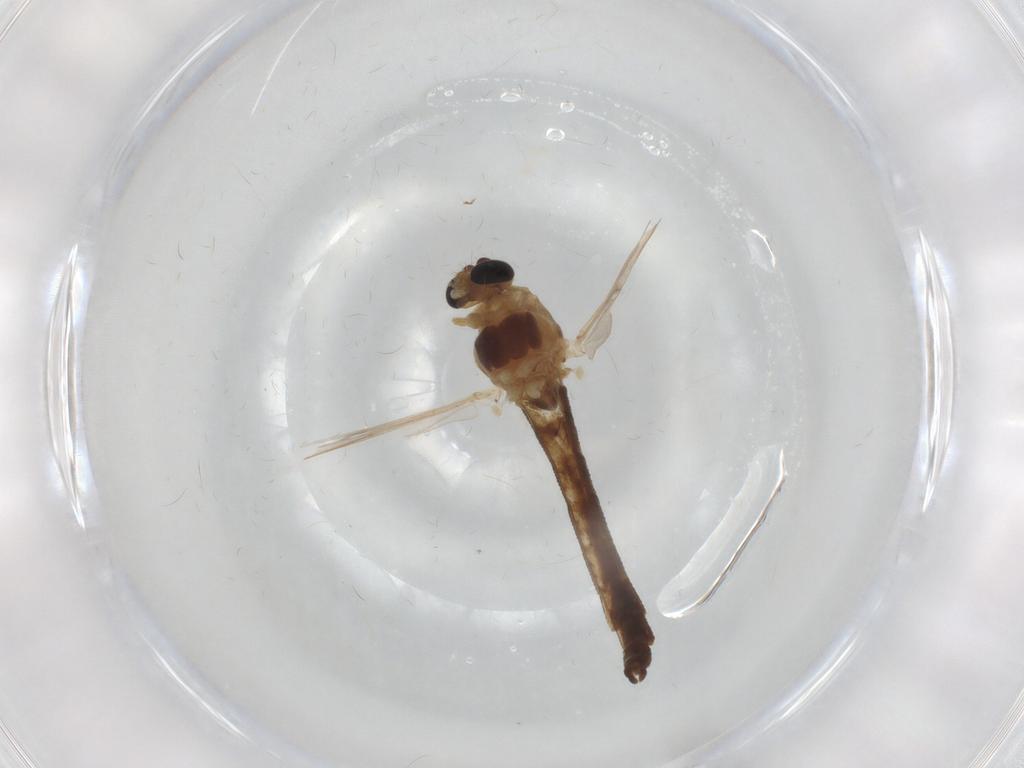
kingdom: Animalia
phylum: Arthropoda
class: Insecta
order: Diptera
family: Chironomidae
